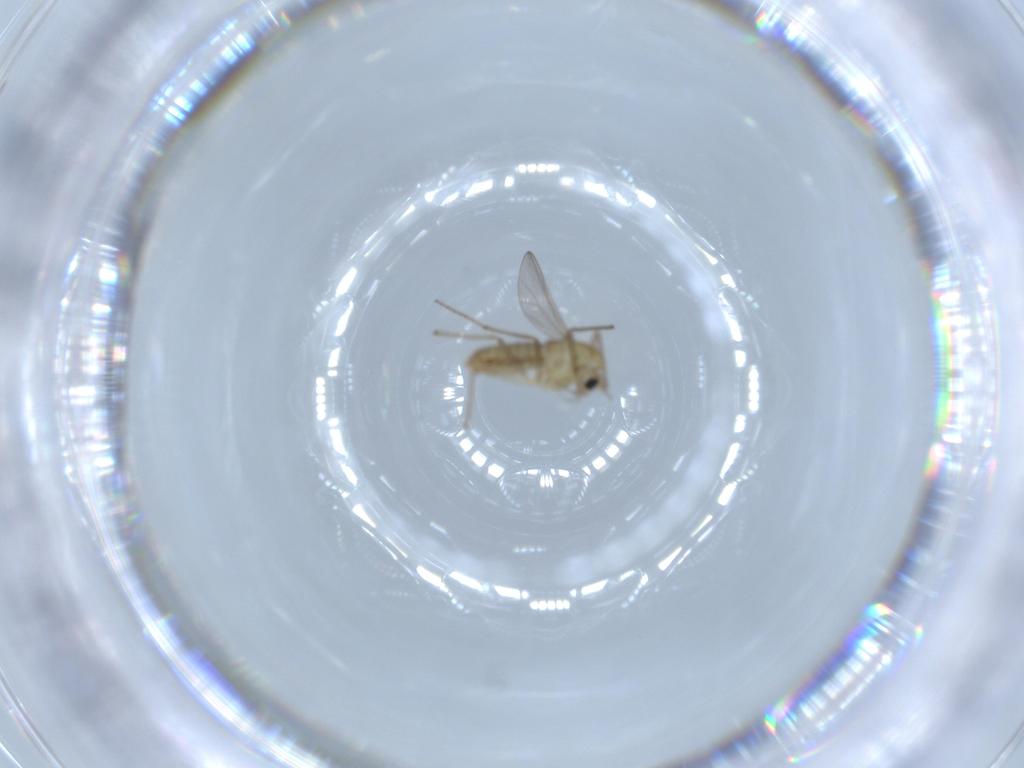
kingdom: Animalia
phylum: Arthropoda
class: Insecta
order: Diptera
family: Chironomidae
